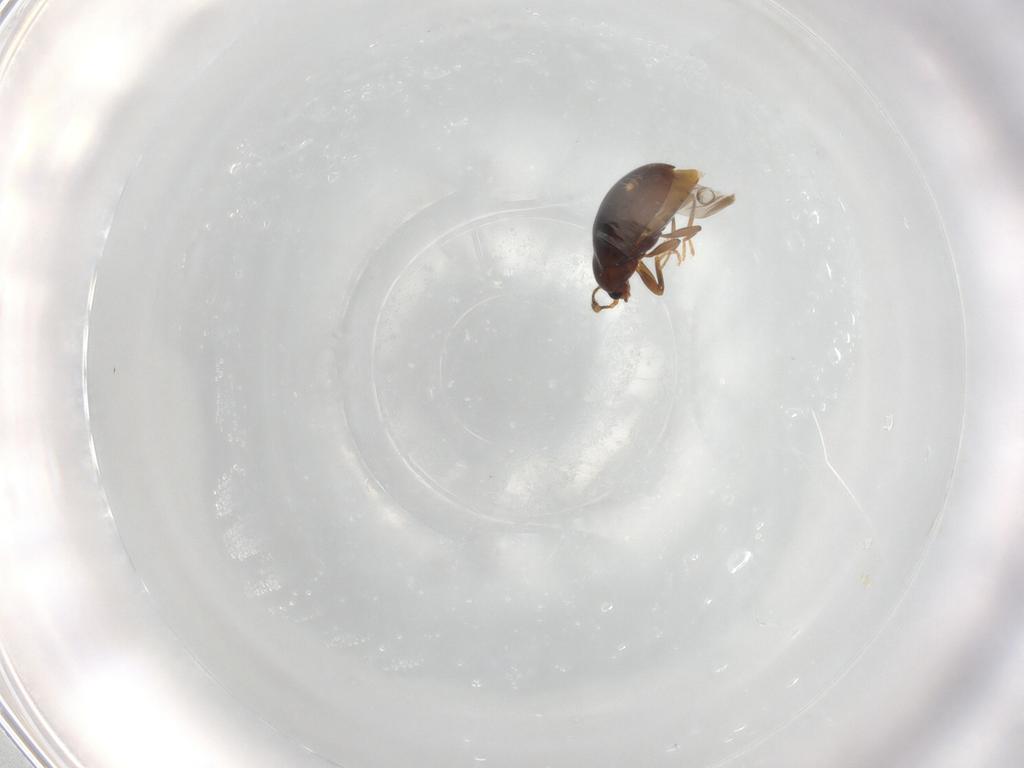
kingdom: Animalia
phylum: Arthropoda
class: Insecta
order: Coleoptera
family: Erotylidae
